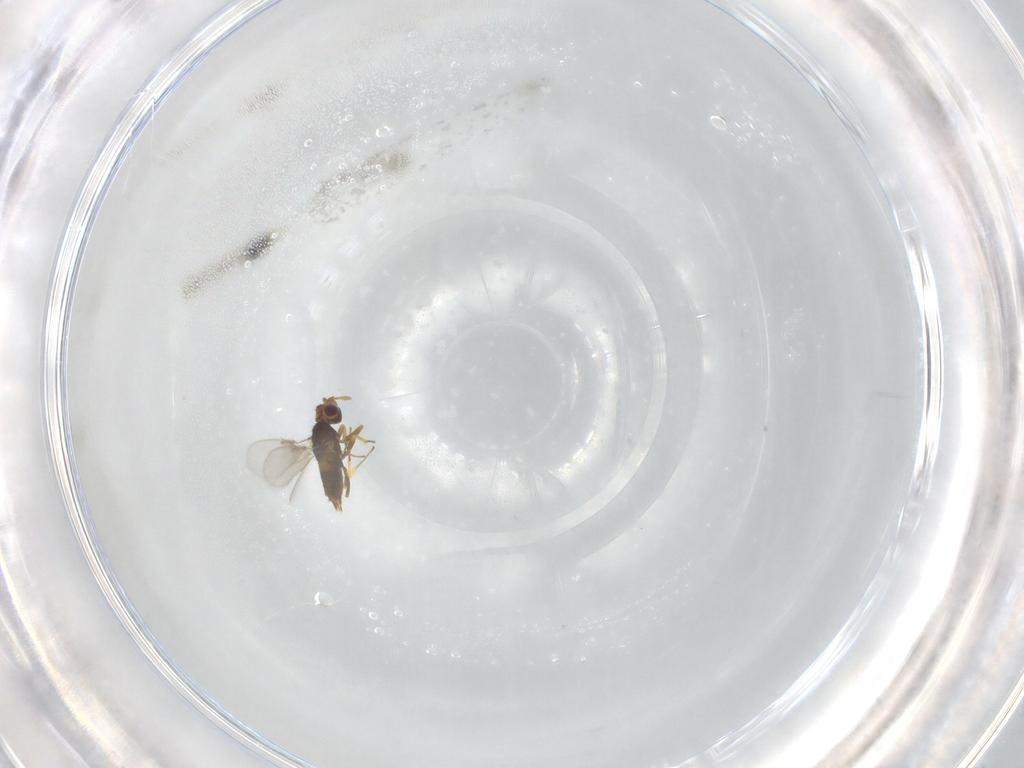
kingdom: Animalia
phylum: Arthropoda
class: Insecta
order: Hymenoptera
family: Aphelinidae
